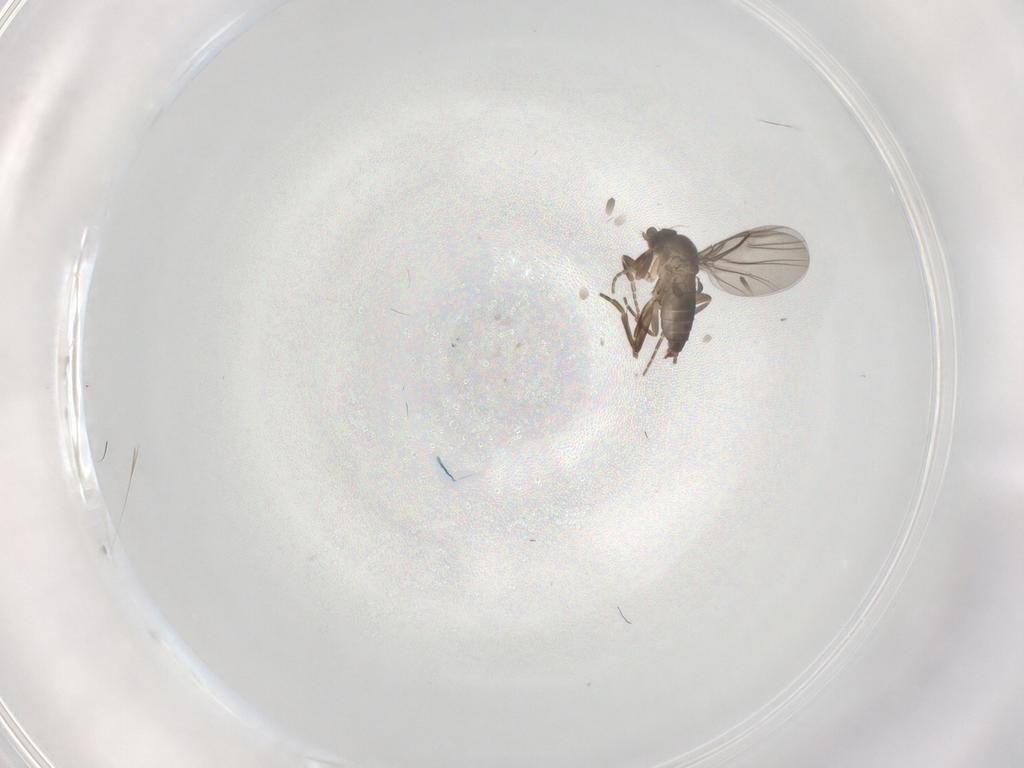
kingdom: Animalia
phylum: Arthropoda
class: Insecta
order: Diptera
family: Phoridae
